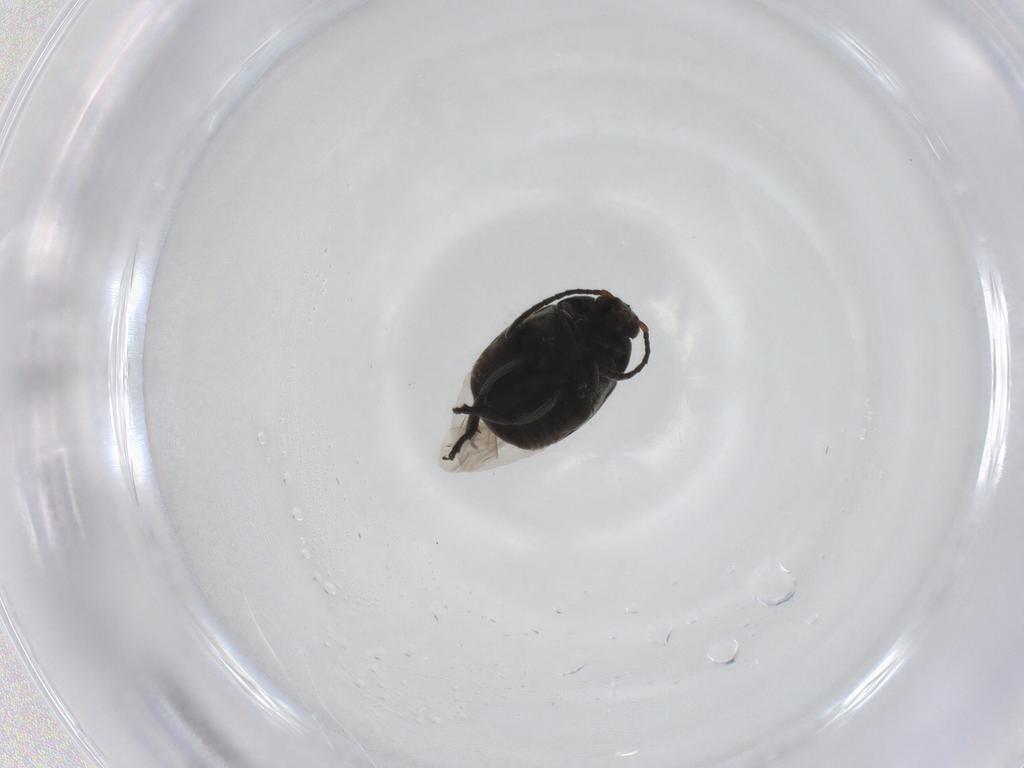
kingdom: Animalia
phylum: Arthropoda
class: Insecta
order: Coleoptera
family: Chrysomelidae
